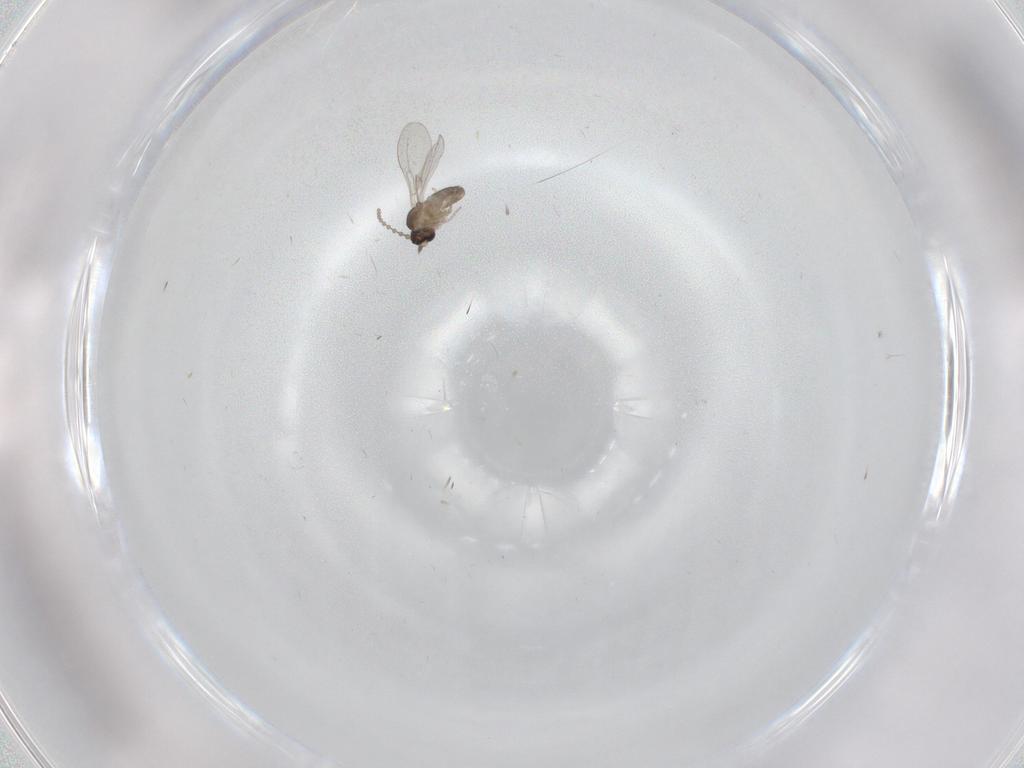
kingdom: Animalia
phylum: Arthropoda
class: Insecta
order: Diptera
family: Cecidomyiidae
